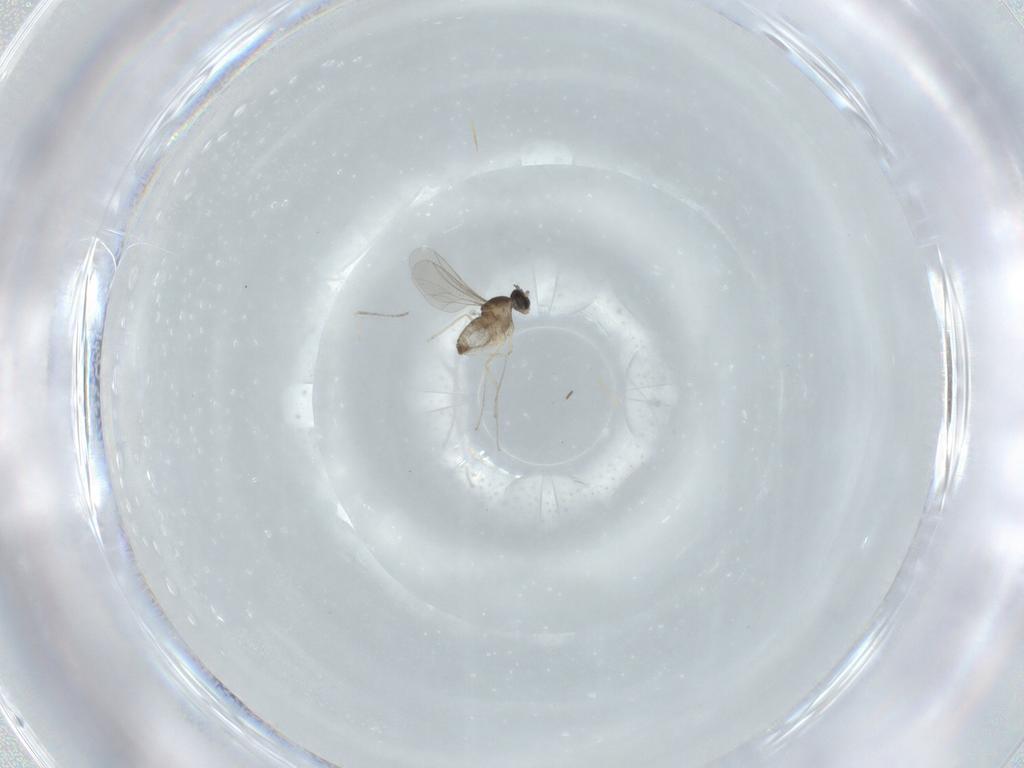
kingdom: Animalia
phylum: Arthropoda
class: Insecta
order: Diptera
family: Cecidomyiidae
